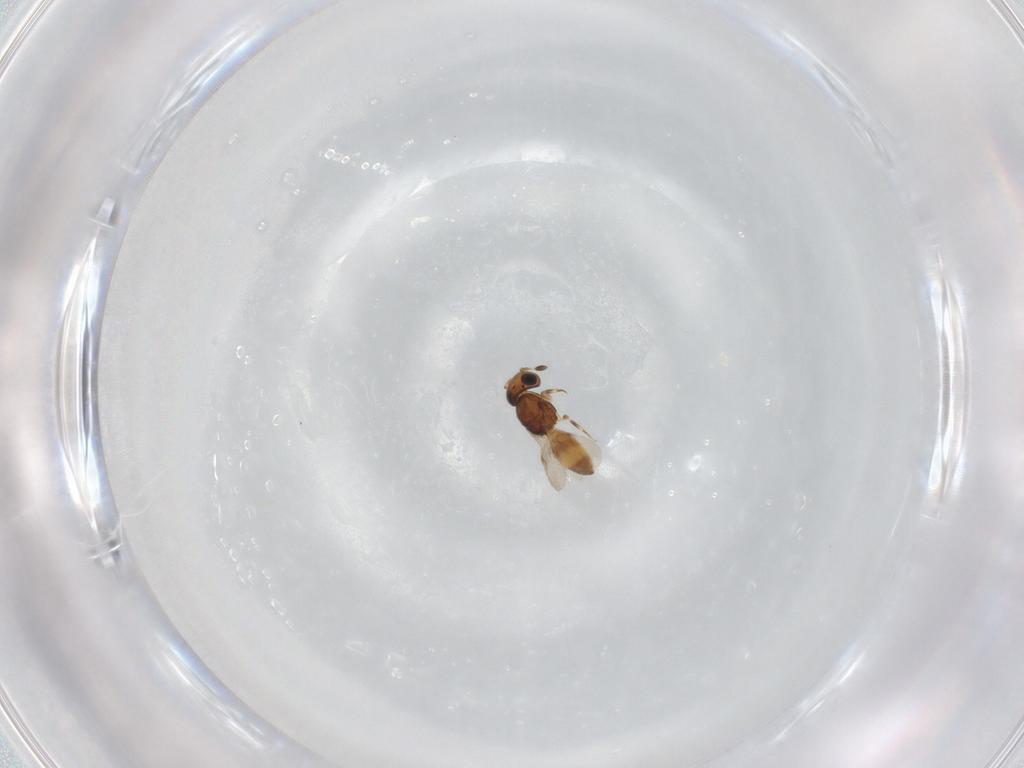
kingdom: Animalia
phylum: Arthropoda
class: Insecta
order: Hymenoptera
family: Scelionidae
